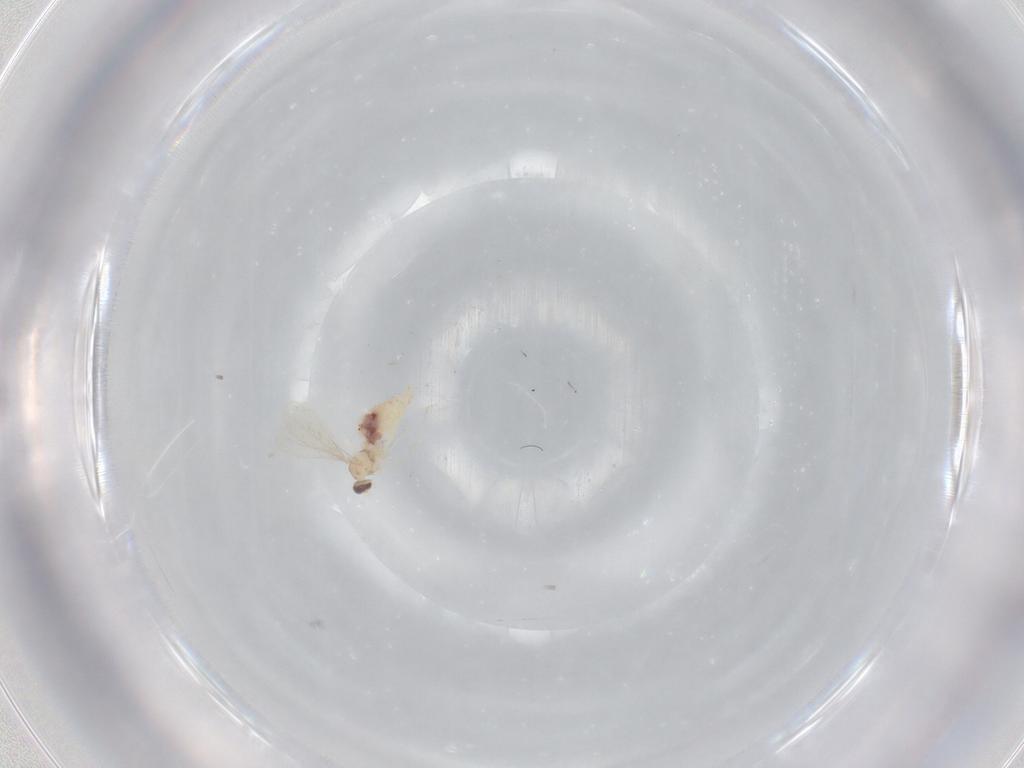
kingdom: Animalia
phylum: Arthropoda
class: Insecta
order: Diptera
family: Cecidomyiidae
